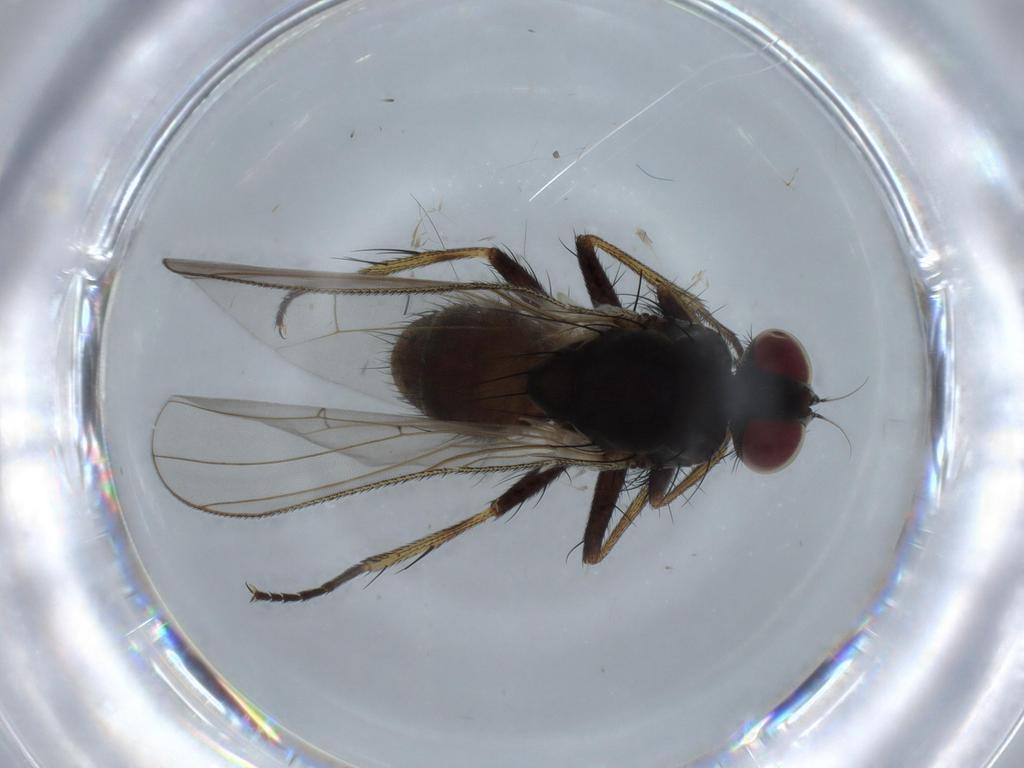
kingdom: Animalia
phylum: Arthropoda
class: Insecta
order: Diptera
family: Muscidae
